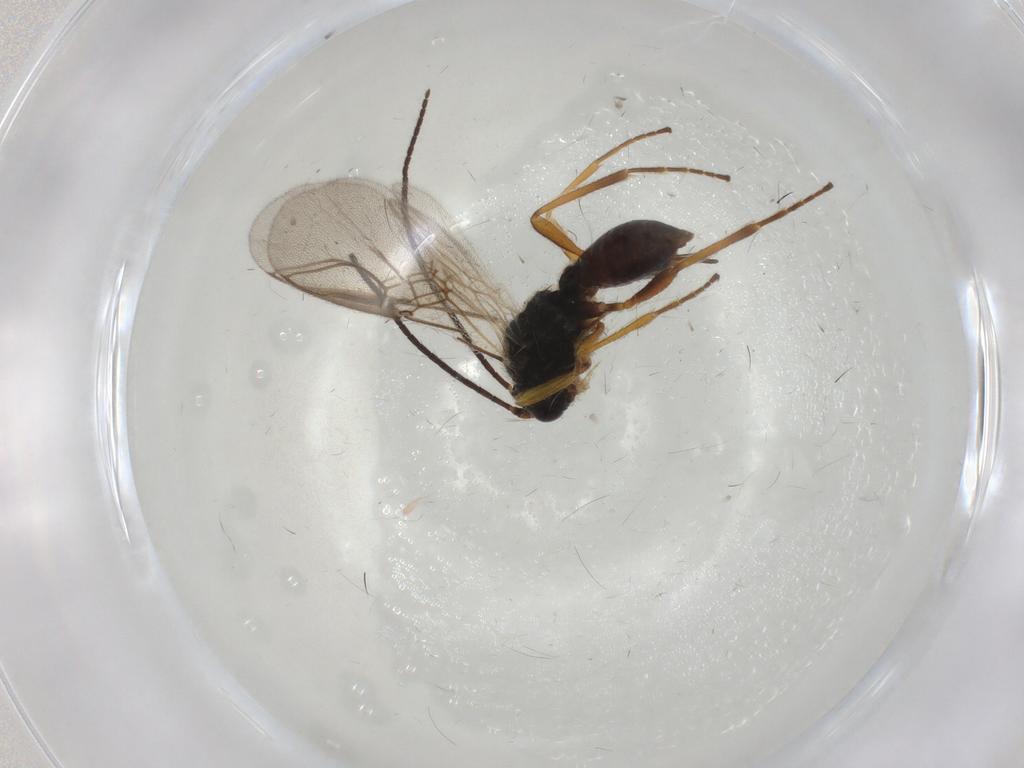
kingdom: Animalia
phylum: Arthropoda
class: Insecta
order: Hymenoptera
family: Braconidae
